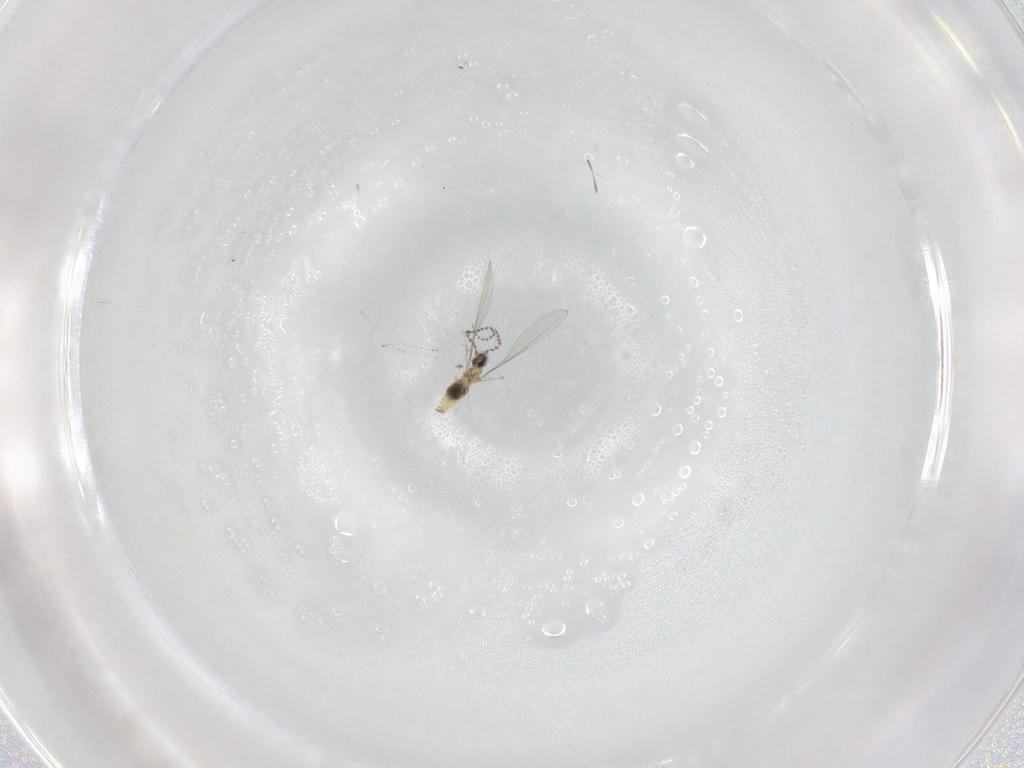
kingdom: Animalia
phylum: Arthropoda
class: Insecta
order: Diptera
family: Cecidomyiidae
